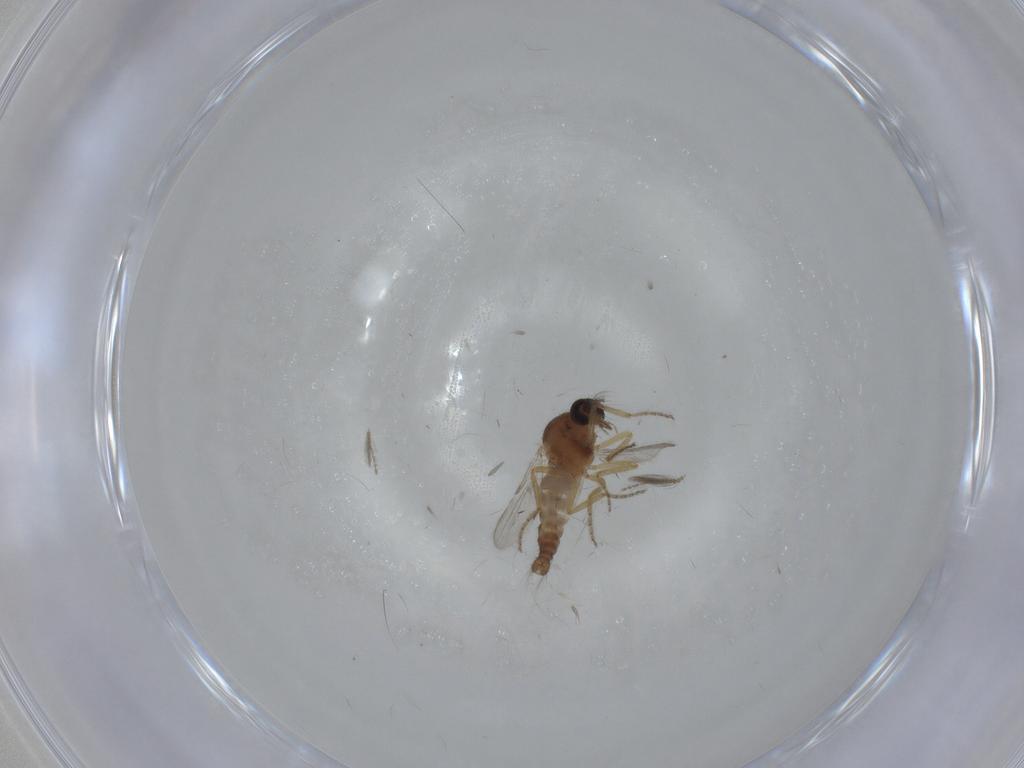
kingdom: Animalia
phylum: Arthropoda
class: Insecta
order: Diptera
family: Ceratopogonidae
